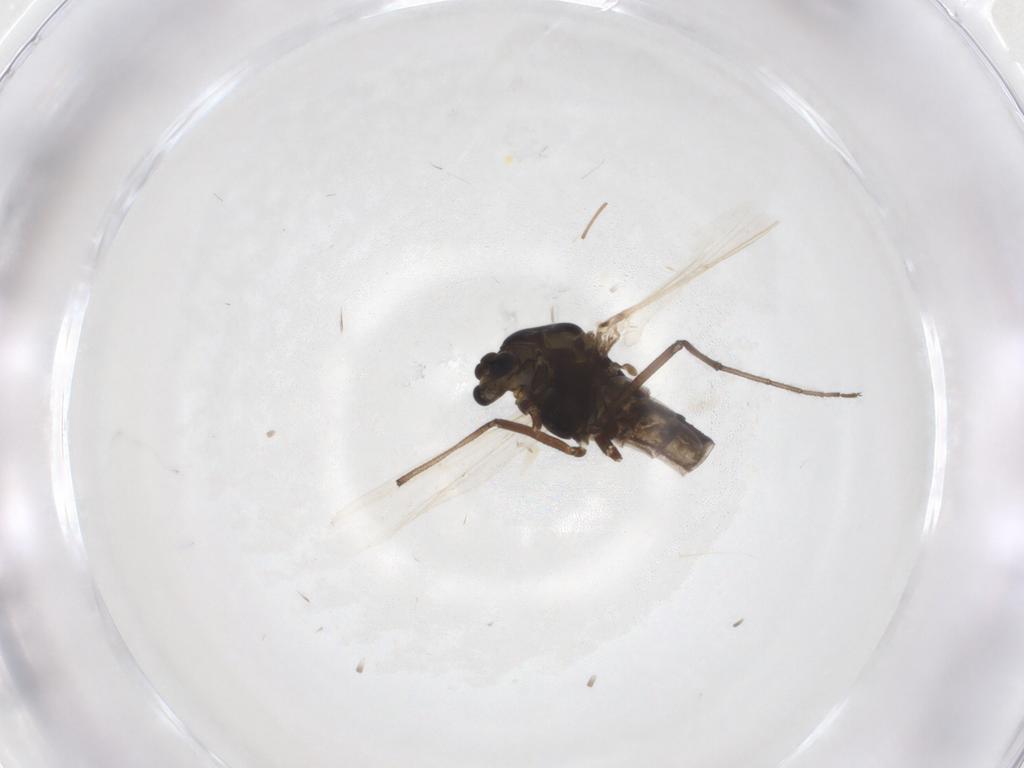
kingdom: Animalia
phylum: Arthropoda
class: Insecta
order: Diptera
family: Chironomidae
